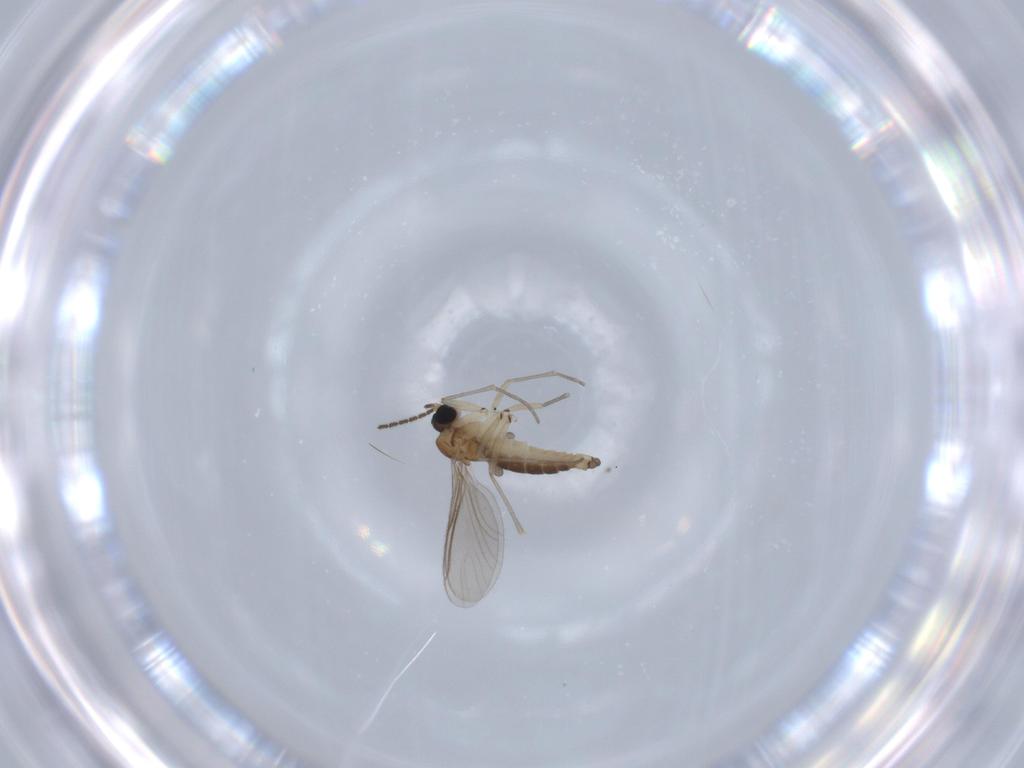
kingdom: Animalia
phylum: Arthropoda
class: Insecta
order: Diptera
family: Sciaridae
